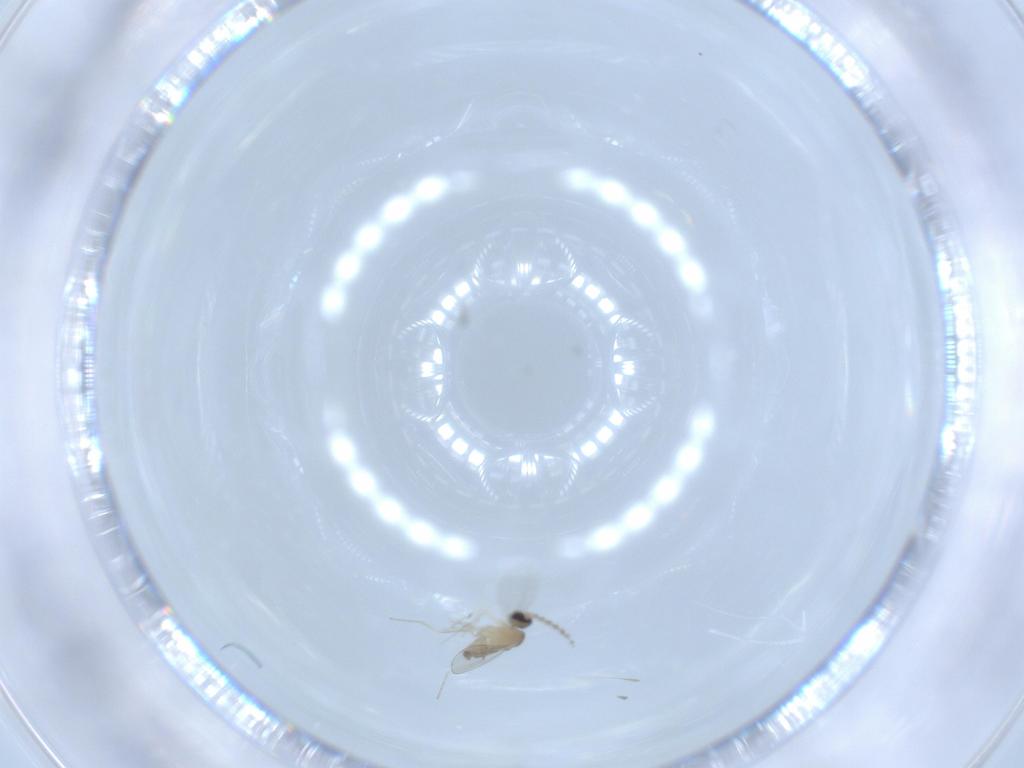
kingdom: Animalia
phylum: Arthropoda
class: Insecta
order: Diptera
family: Cecidomyiidae
